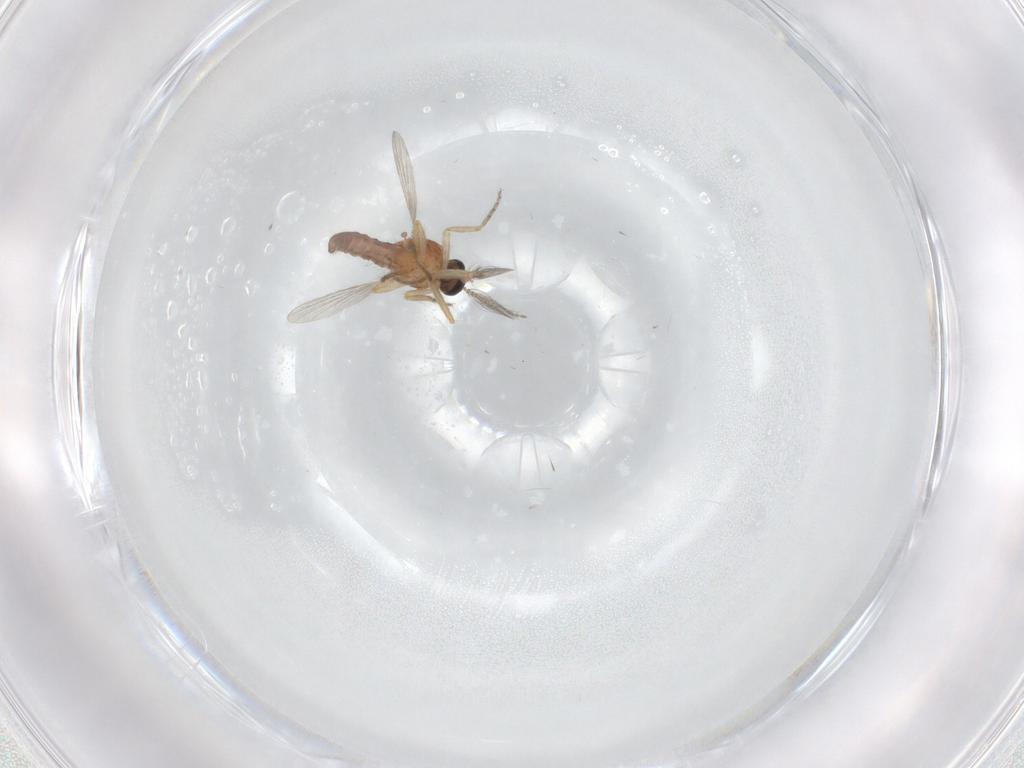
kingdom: Animalia
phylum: Arthropoda
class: Insecta
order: Diptera
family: Ceratopogonidae
